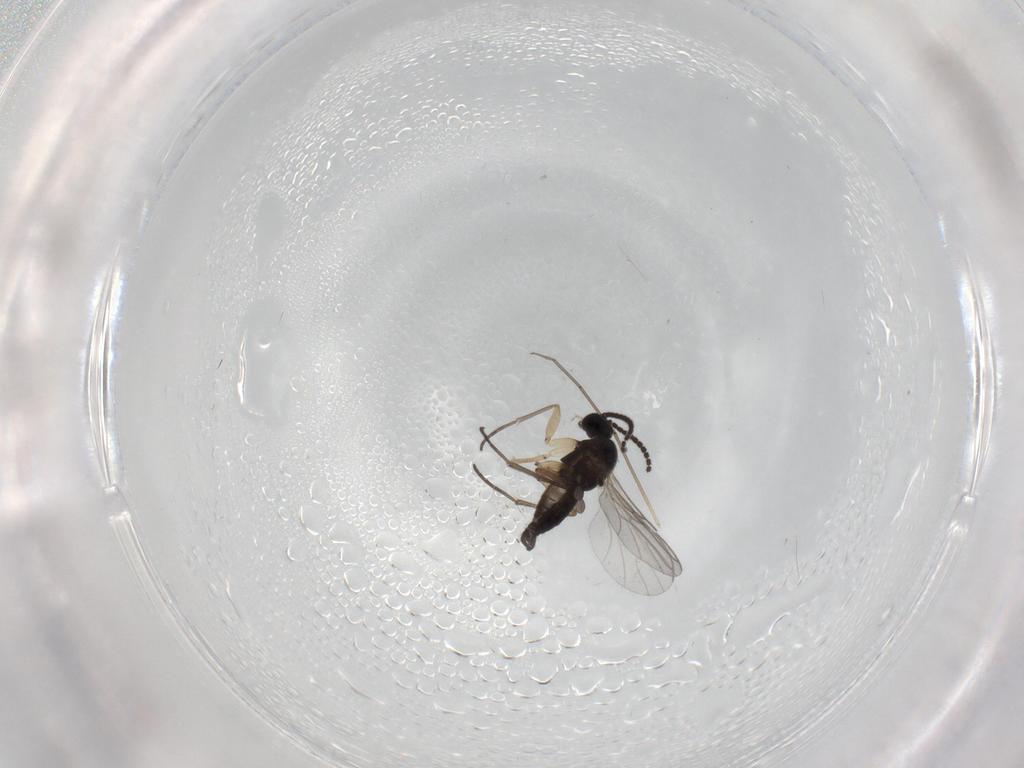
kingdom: Animalia
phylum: Arthropoda
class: Insecta
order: Diptera
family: Sciaridae
